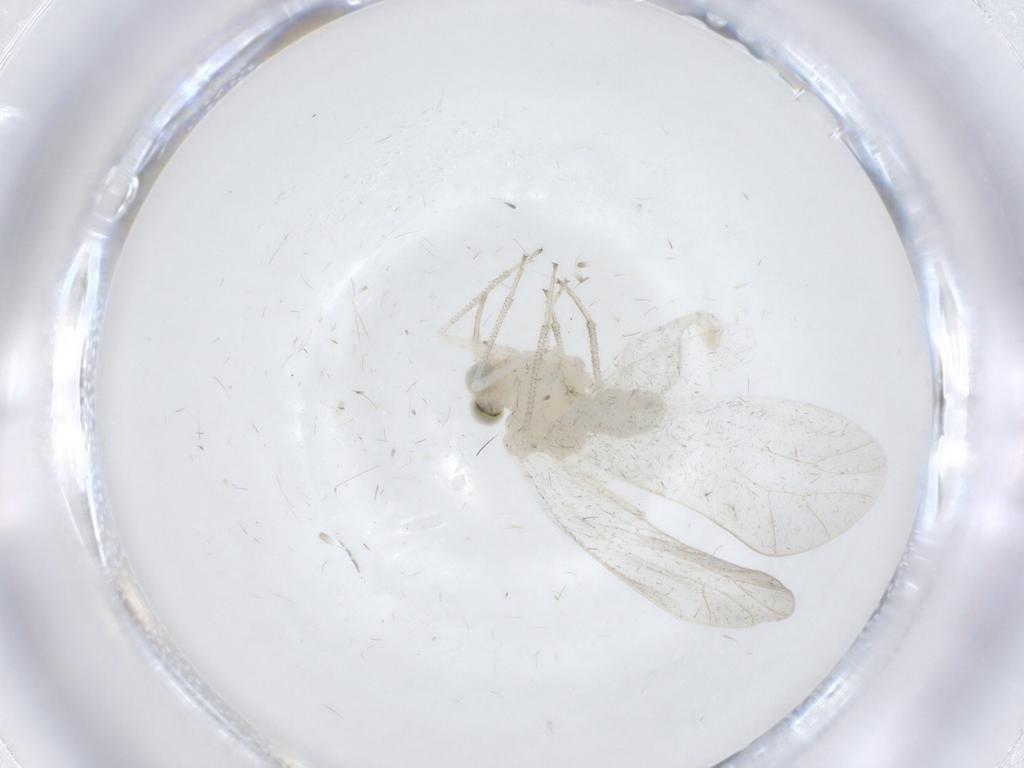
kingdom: Animalia
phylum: Arthropoda
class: Insecta
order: Psocodea
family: Caeciliusidae
